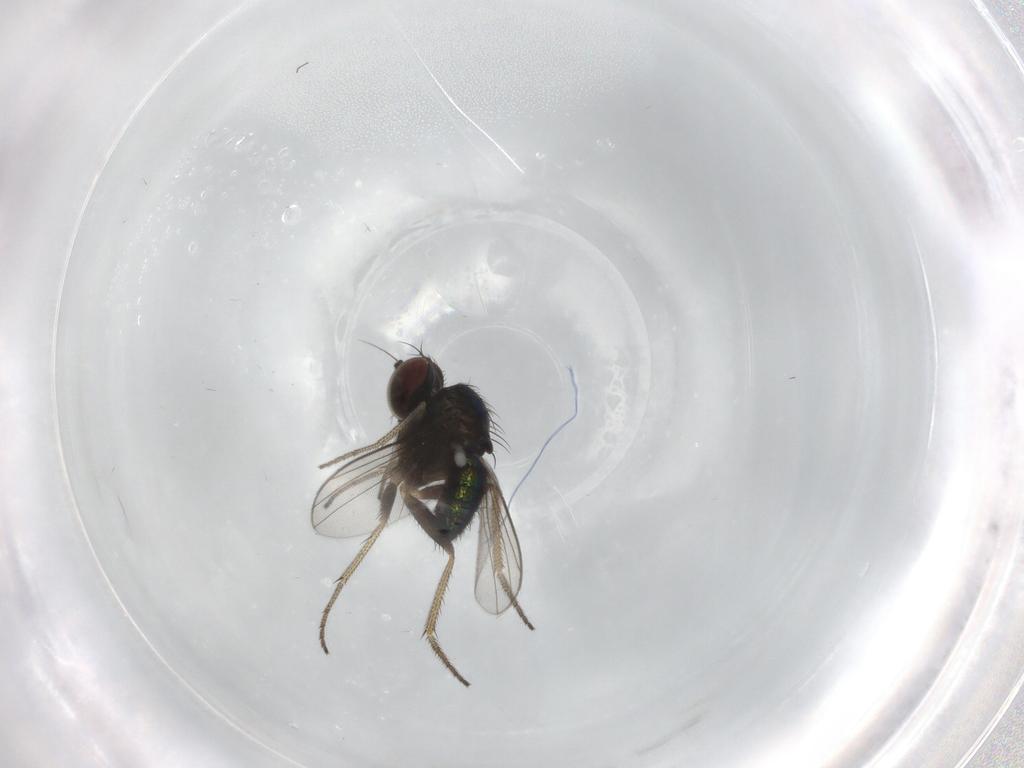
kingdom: Animalia
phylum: Arthropoda
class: Insecta
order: Diptera
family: Dolichopodidae
